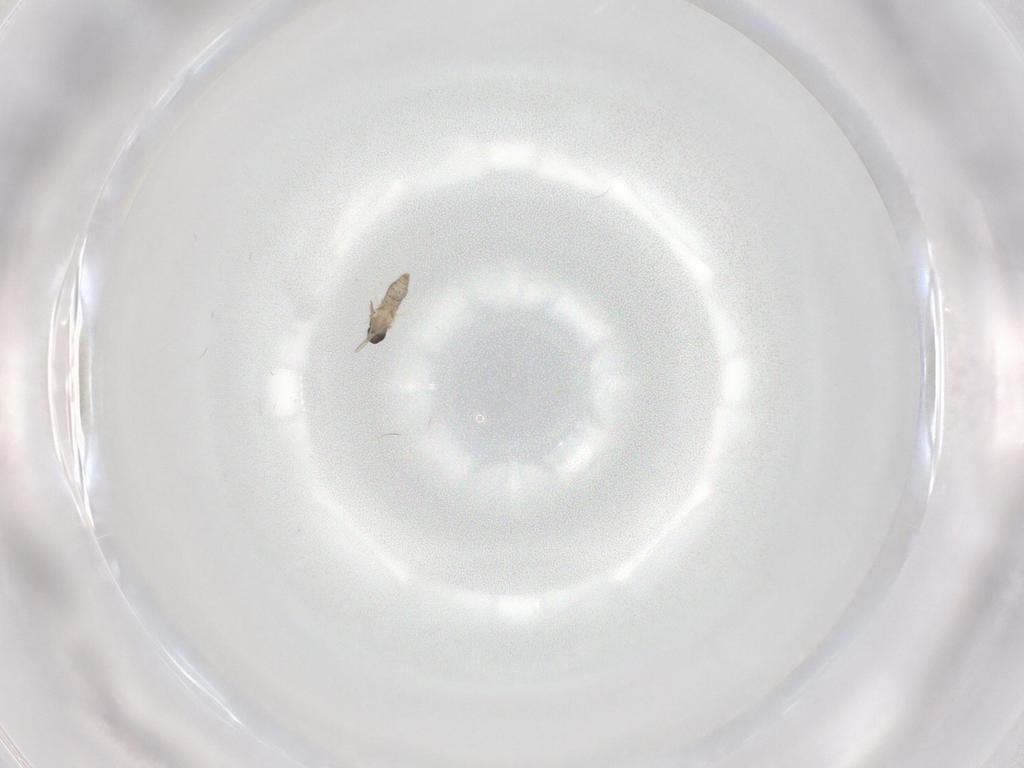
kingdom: Animalia
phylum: Arthropoda
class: Insecta
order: Diptera
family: Cecidomyiidae
